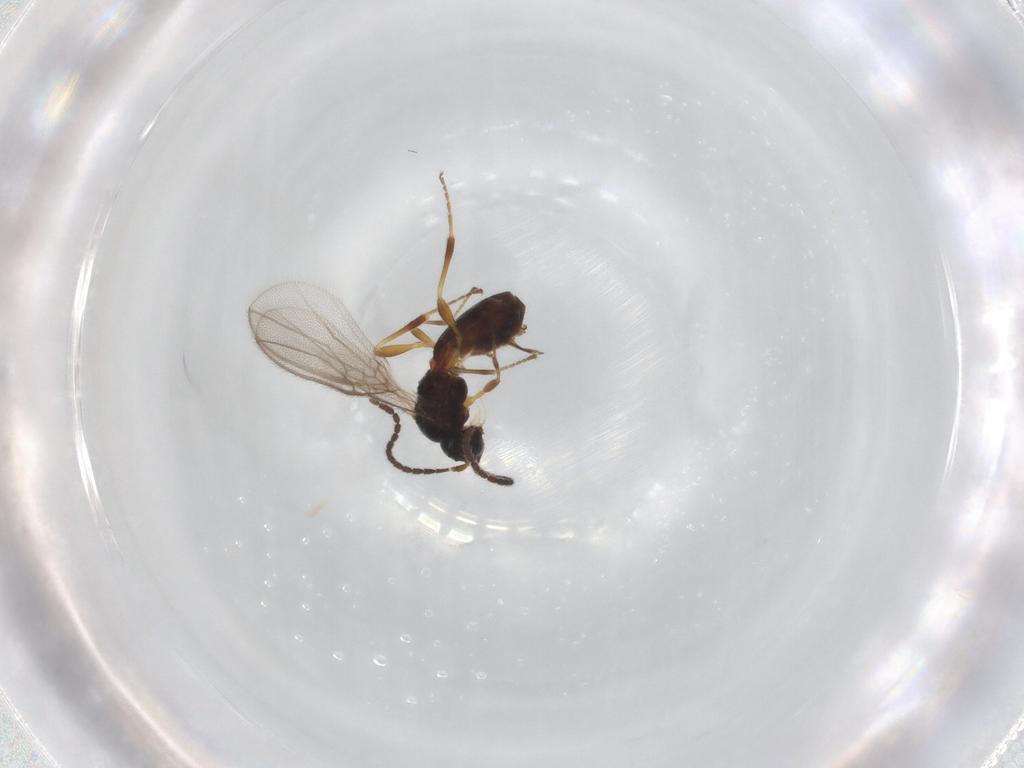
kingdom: Animalia
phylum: Arthropoda
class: Insecta
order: Hymenoptera
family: Braconidae
